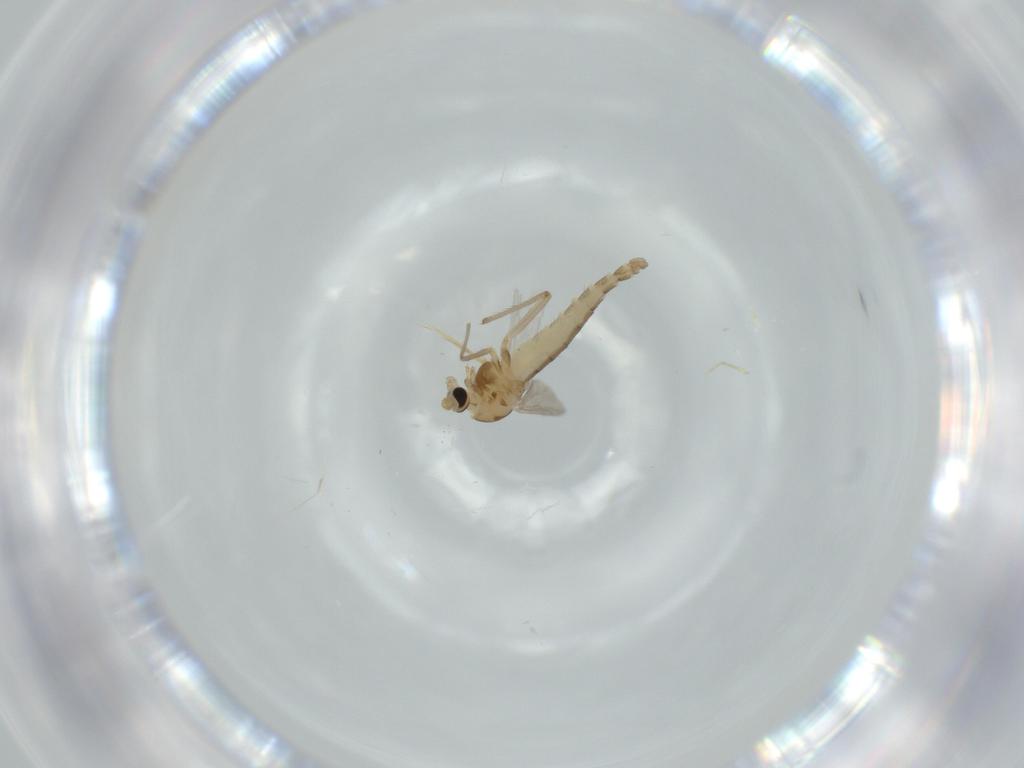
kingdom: Animalia
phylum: Arthropoda
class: Insecta
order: Diptera
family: Chironomidae
